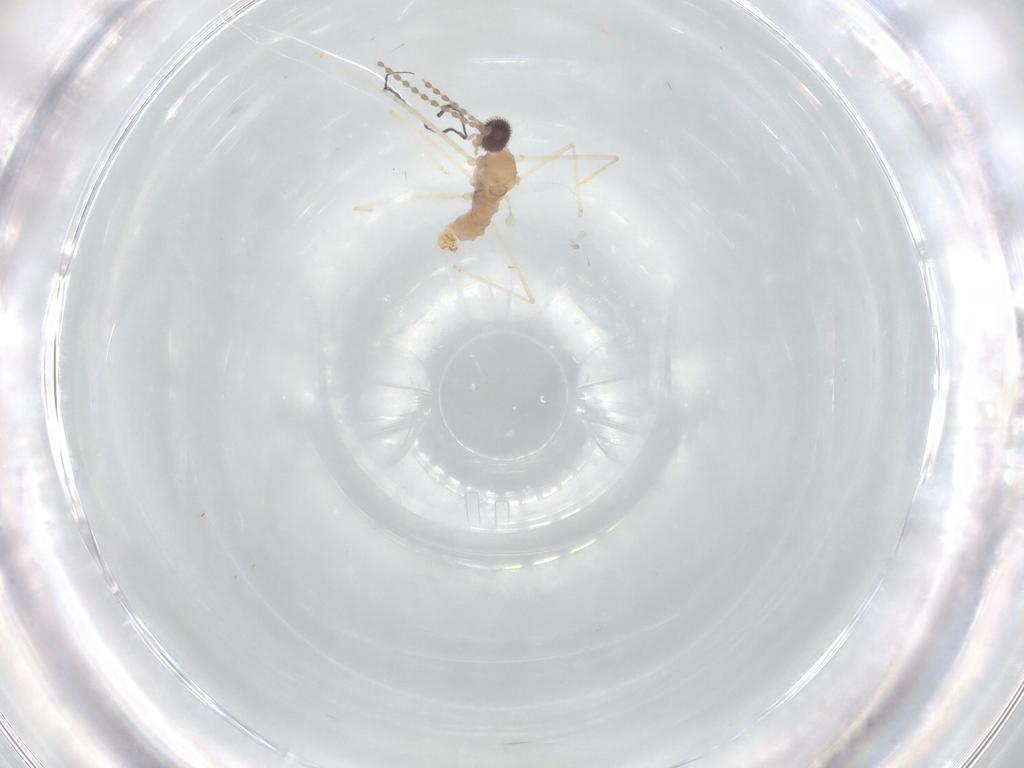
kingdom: Animalia
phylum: Arthropoda
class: Insecta
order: Diptera
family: Cecidomyiidae
